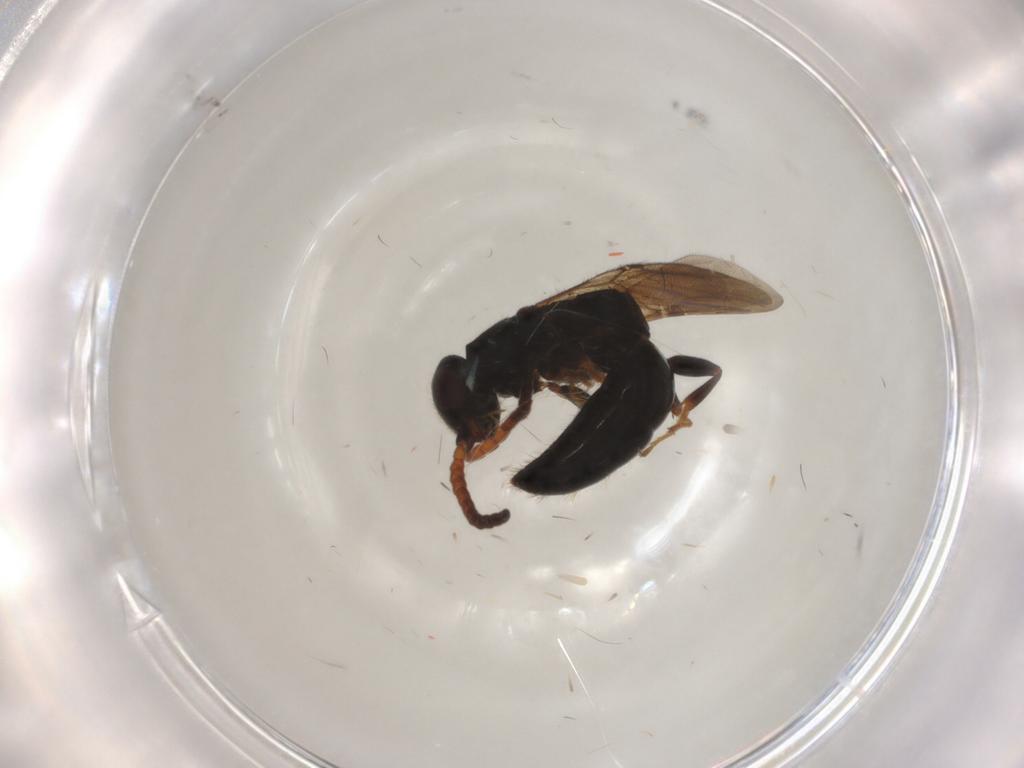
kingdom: Animalia
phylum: Arthropoda
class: Insecta
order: Hymenoptera
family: Bethylidae
